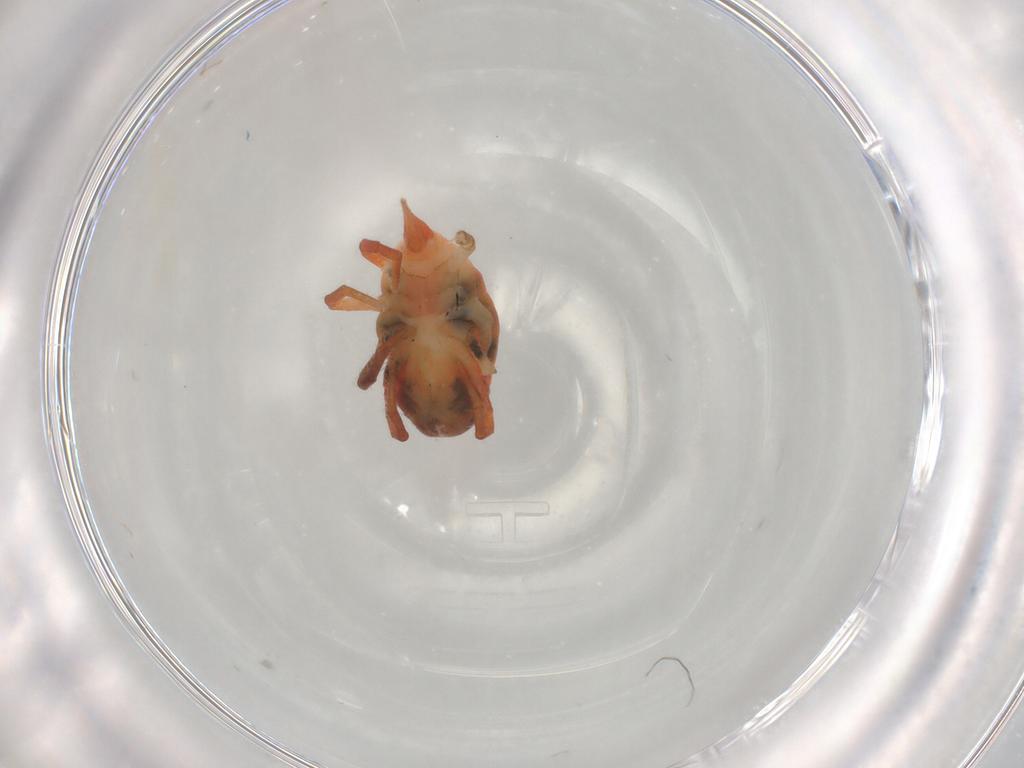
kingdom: Animalia
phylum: Arthropoda
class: Arachnida
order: Trombidiformes
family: Bdellidae
